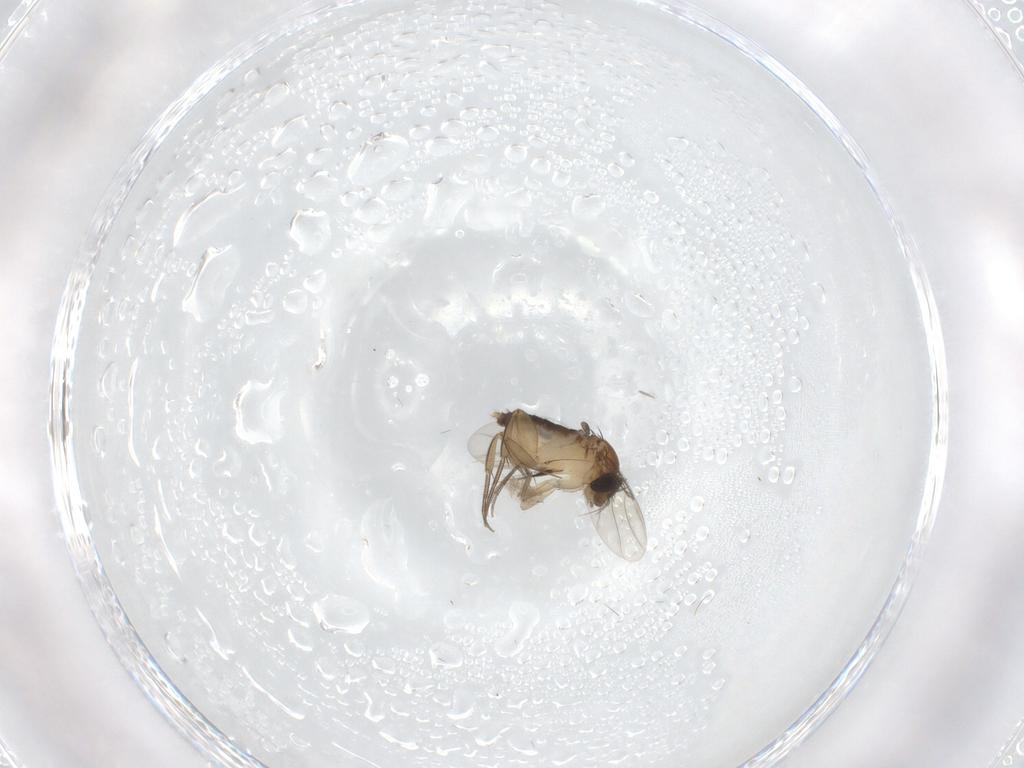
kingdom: Animalia
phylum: Arthropoda
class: Insecta
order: Diptera
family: Phoridae
